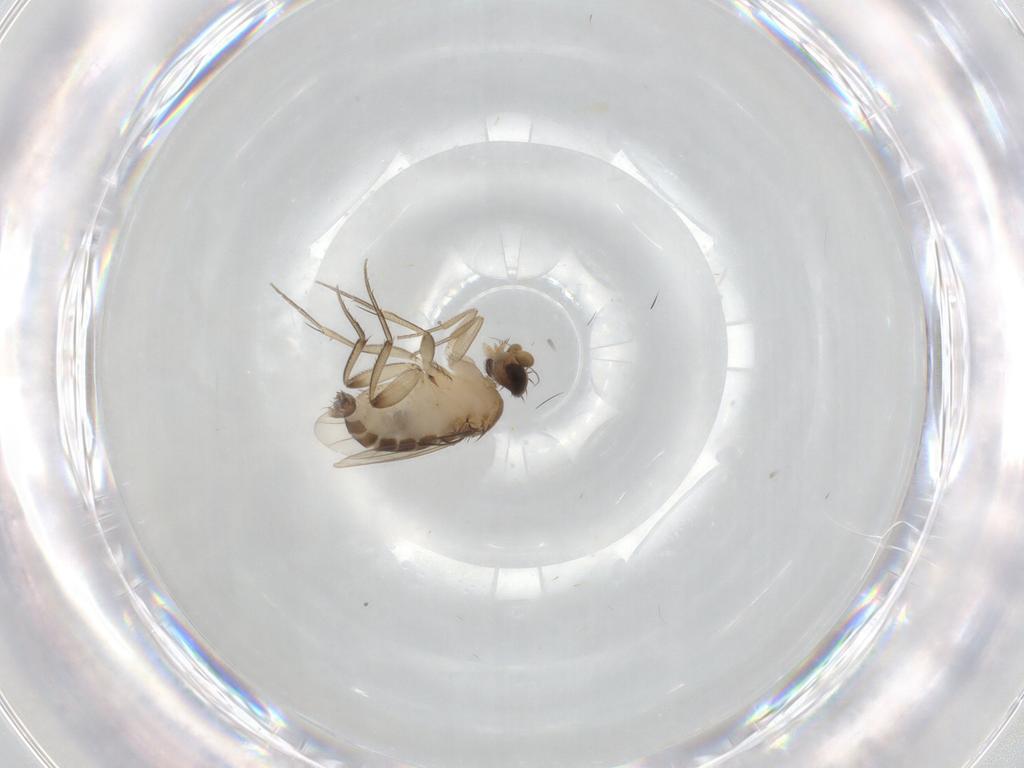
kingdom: Animalia
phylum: Arthropoda
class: Insecta
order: Diptera
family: Phoridae
